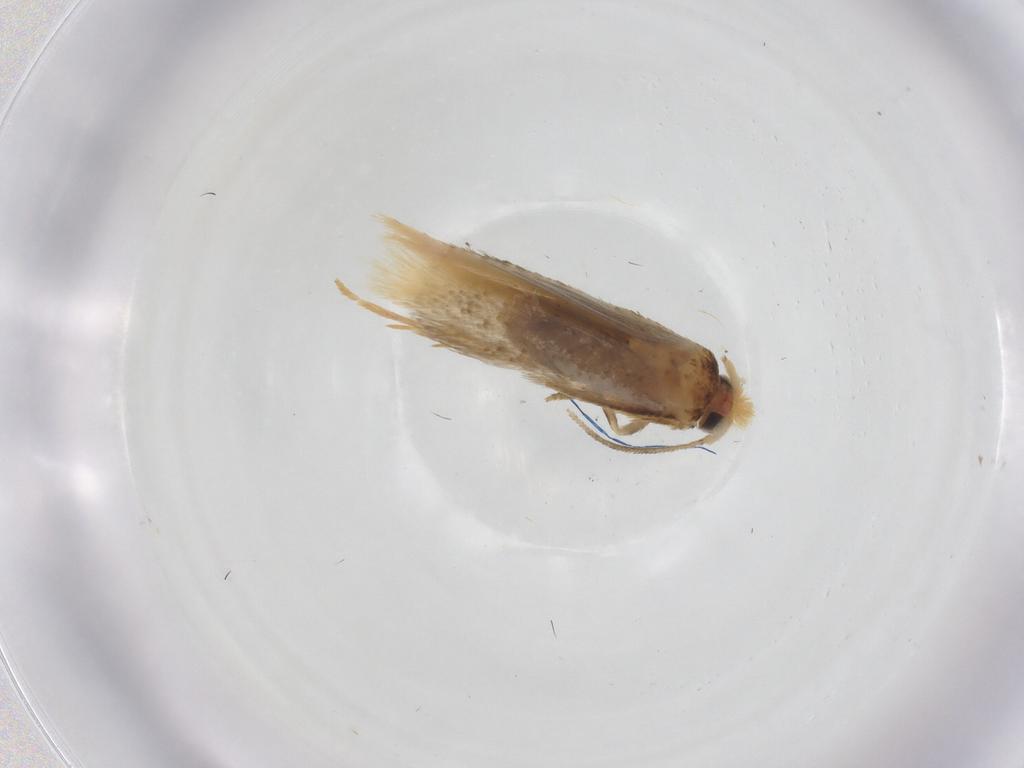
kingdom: Animalia
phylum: Arthropoda
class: Insecta
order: Lepidoptera
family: Nepticulidae
